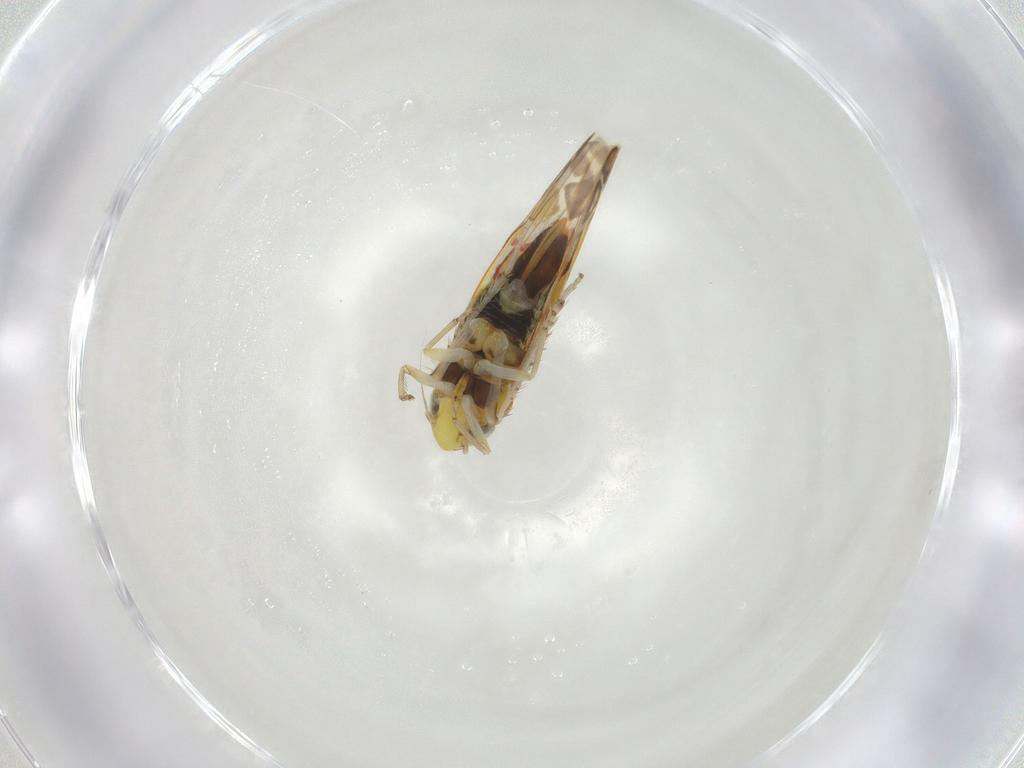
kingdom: Animalia
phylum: Arthropoda
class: Insecta
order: Hemiptera
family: Cicadellidae
